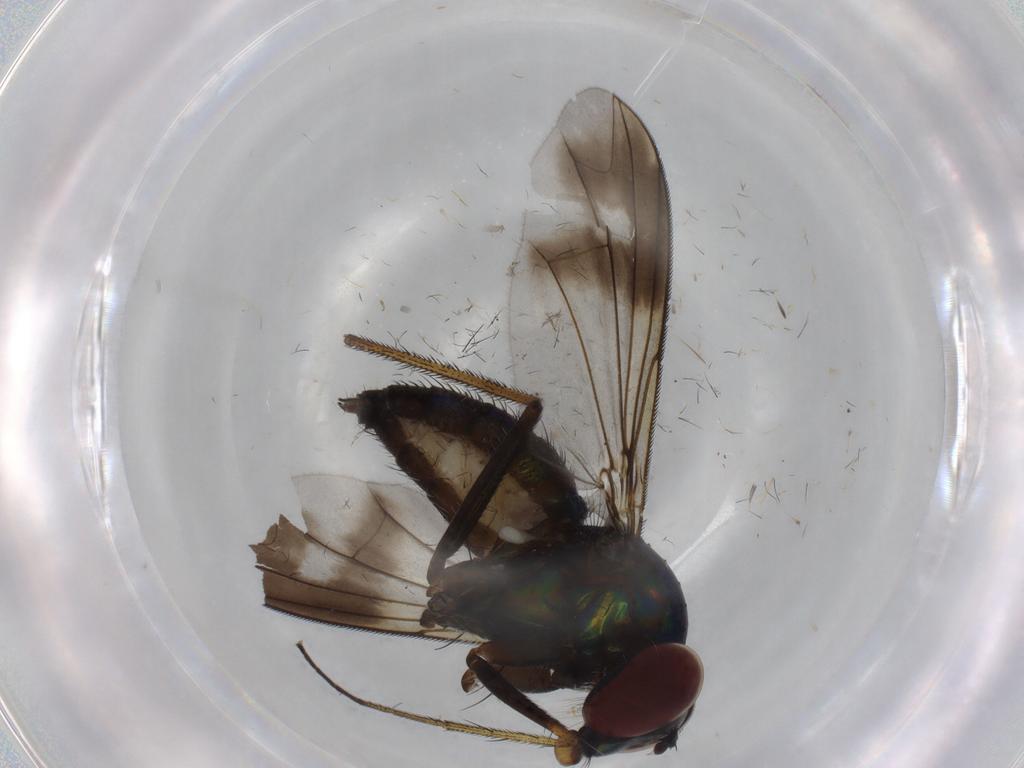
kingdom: Animalia
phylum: Arthropoda
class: Insecta
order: Diptera
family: Dolichopodidae
